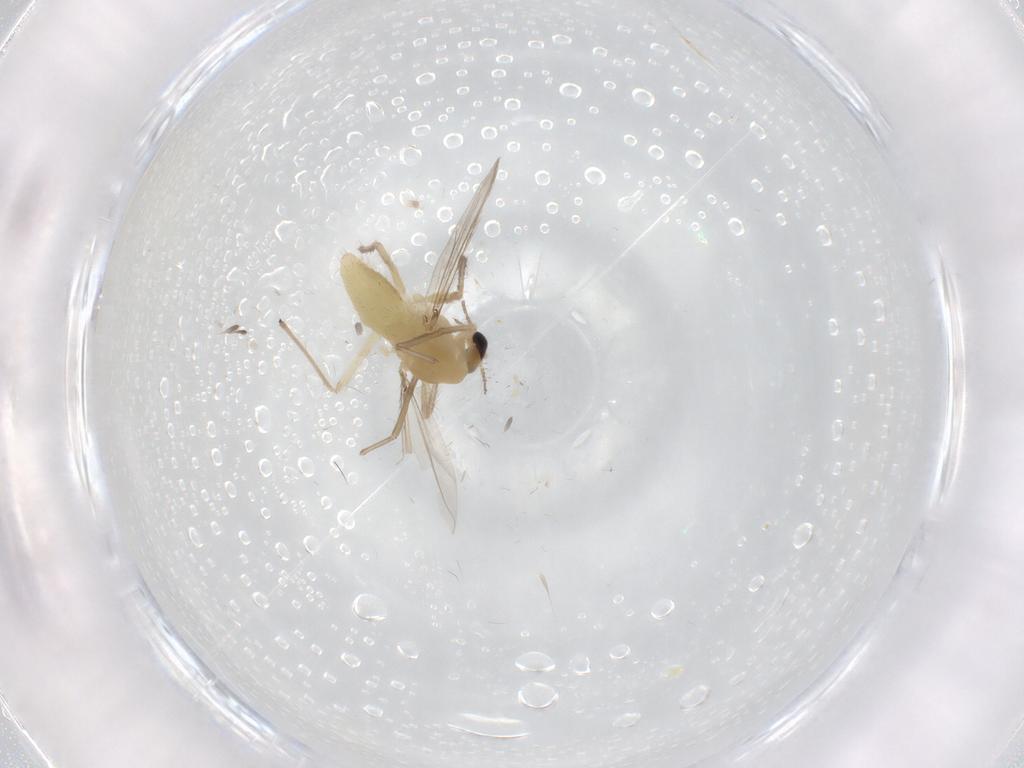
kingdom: Animalia
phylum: Arthropoda
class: Insecta
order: Diptera
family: Chironomidae
